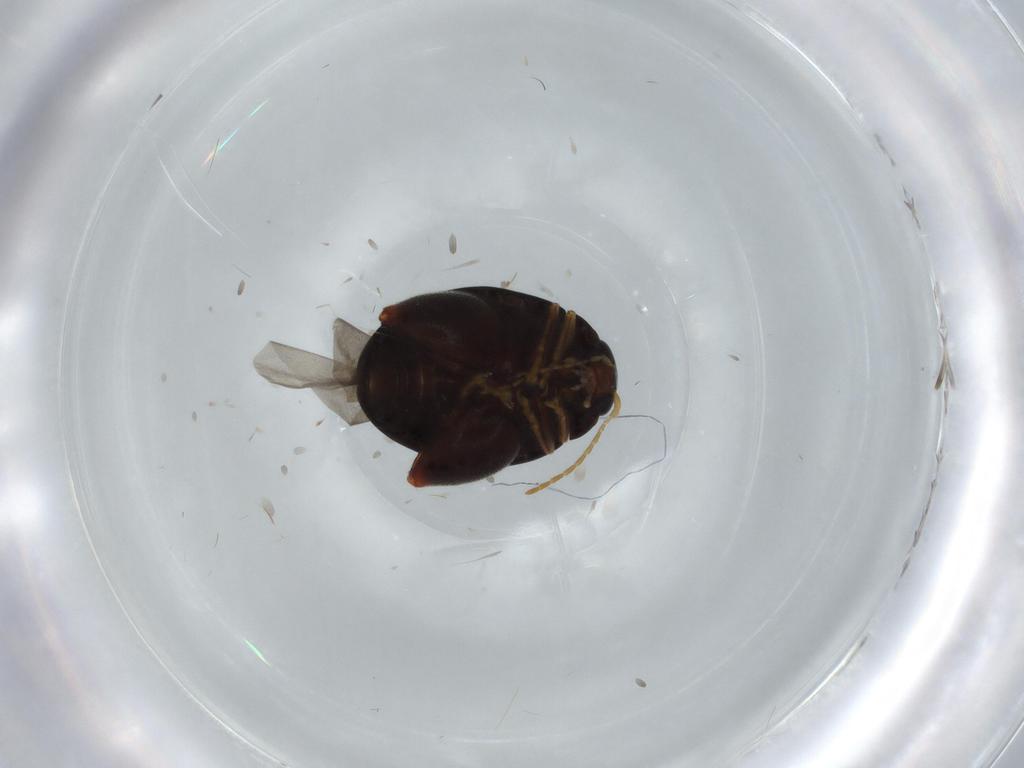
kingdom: Animalia
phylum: Arthropoda
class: Insecta
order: Coleoptera
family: Chrysomelidae
